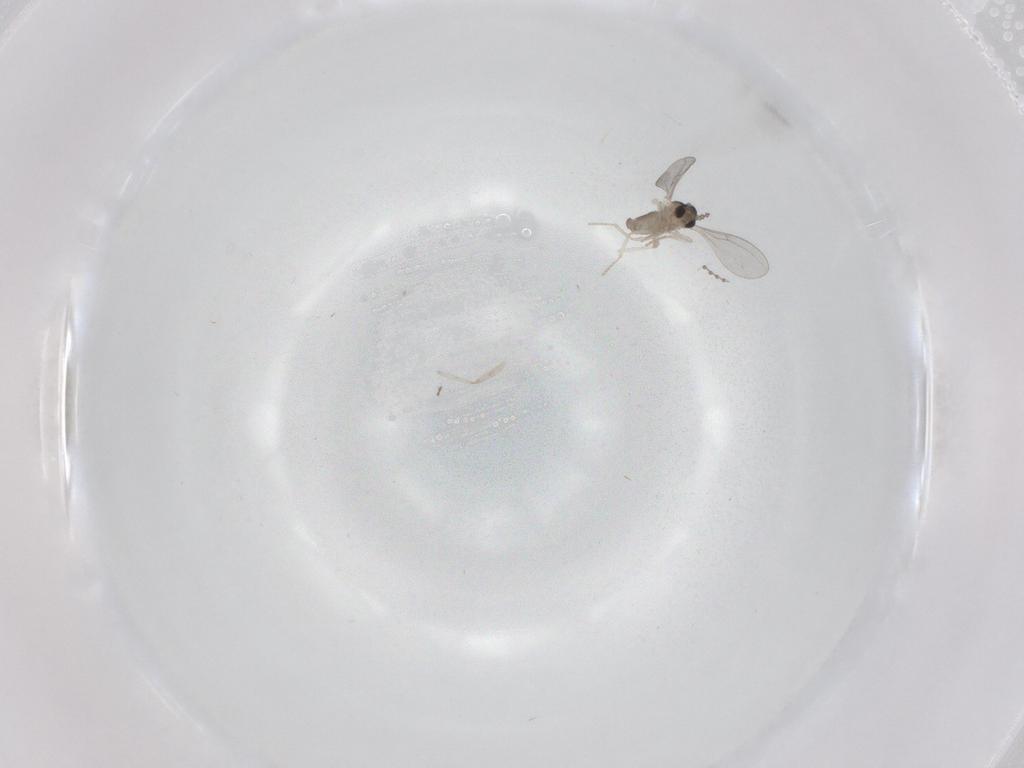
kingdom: Animalia
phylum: Arthropoda
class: Insecta
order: Diptera
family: Cecidomyiidae
